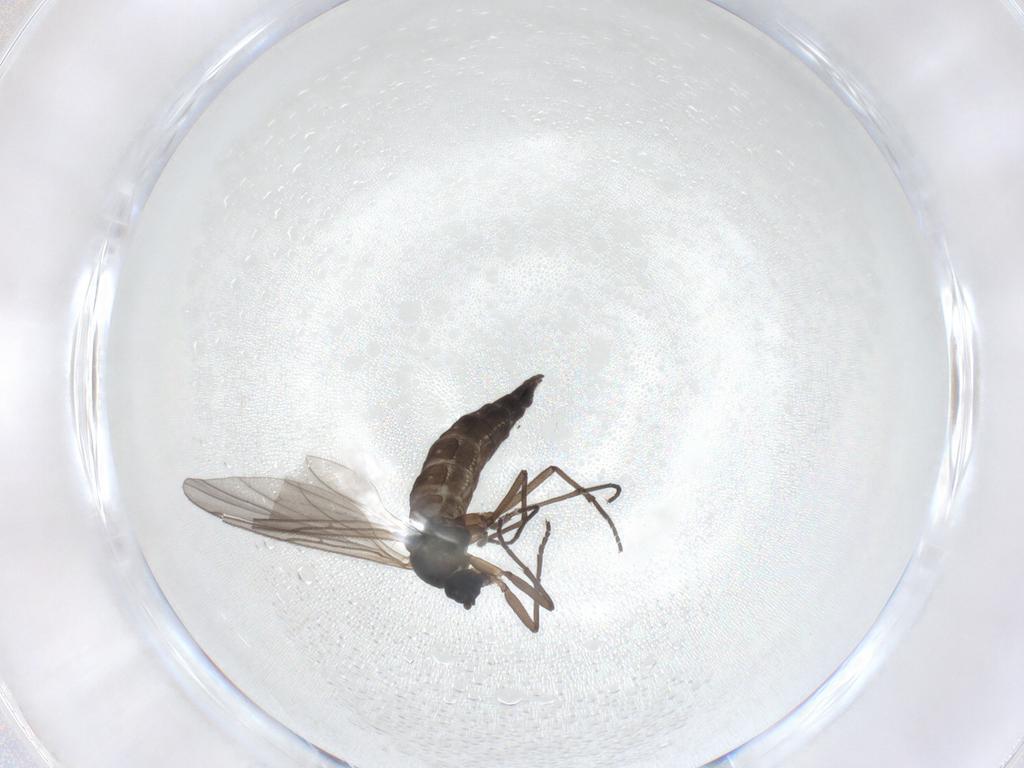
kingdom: Animalia
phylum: Arthropoda
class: Insecta
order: Diptera
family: Sciaridae
